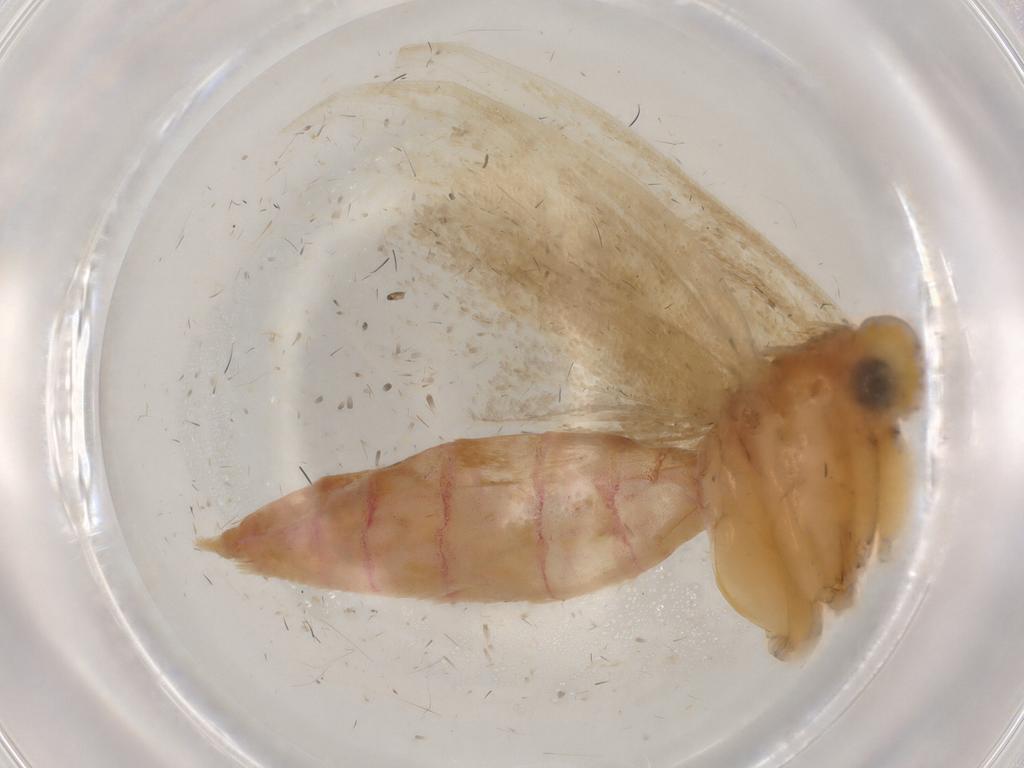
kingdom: Animalia
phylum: Arthropoda
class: Insecta
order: Lepidoptera
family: Autostichidae
